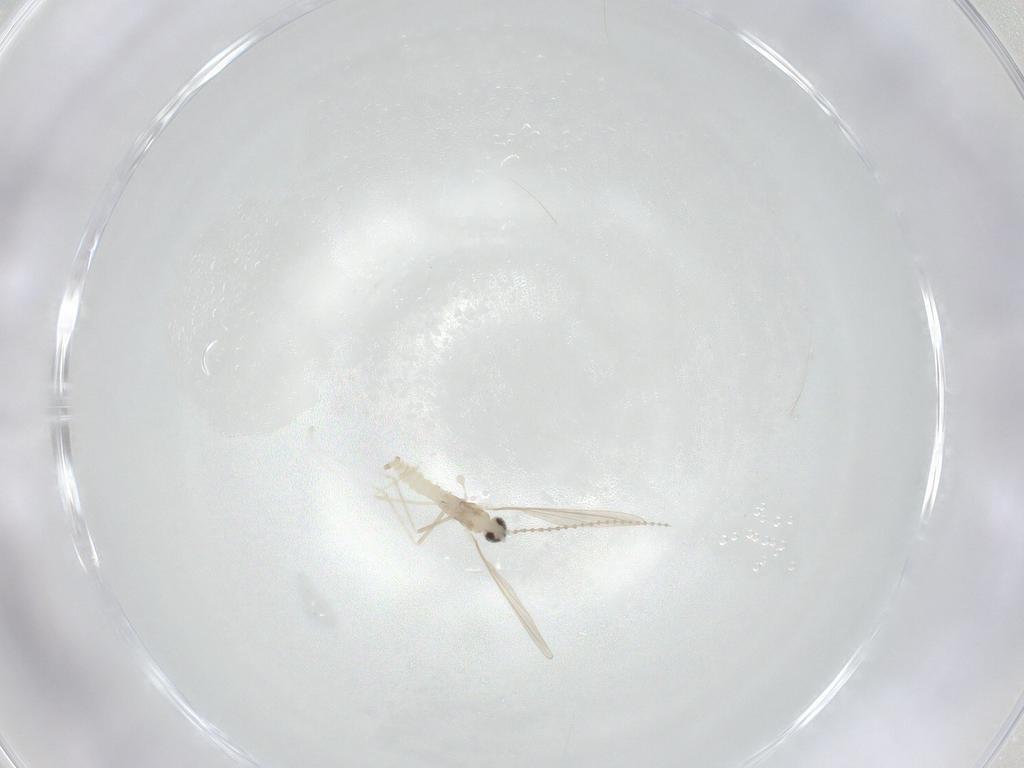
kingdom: Animalia
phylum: Arthropoda
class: Insecta
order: Diptera
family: Cecidomyiidae
